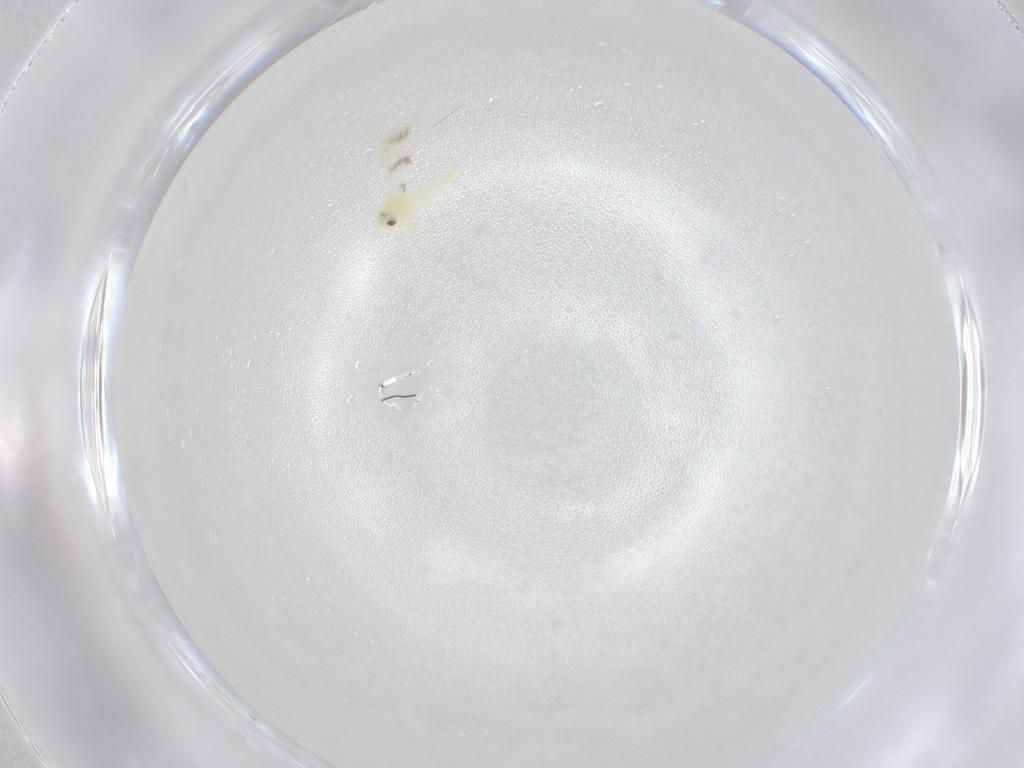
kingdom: Animalia
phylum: Arthropoda
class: Insecta
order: Hemiptera
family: Aleyrodidae
